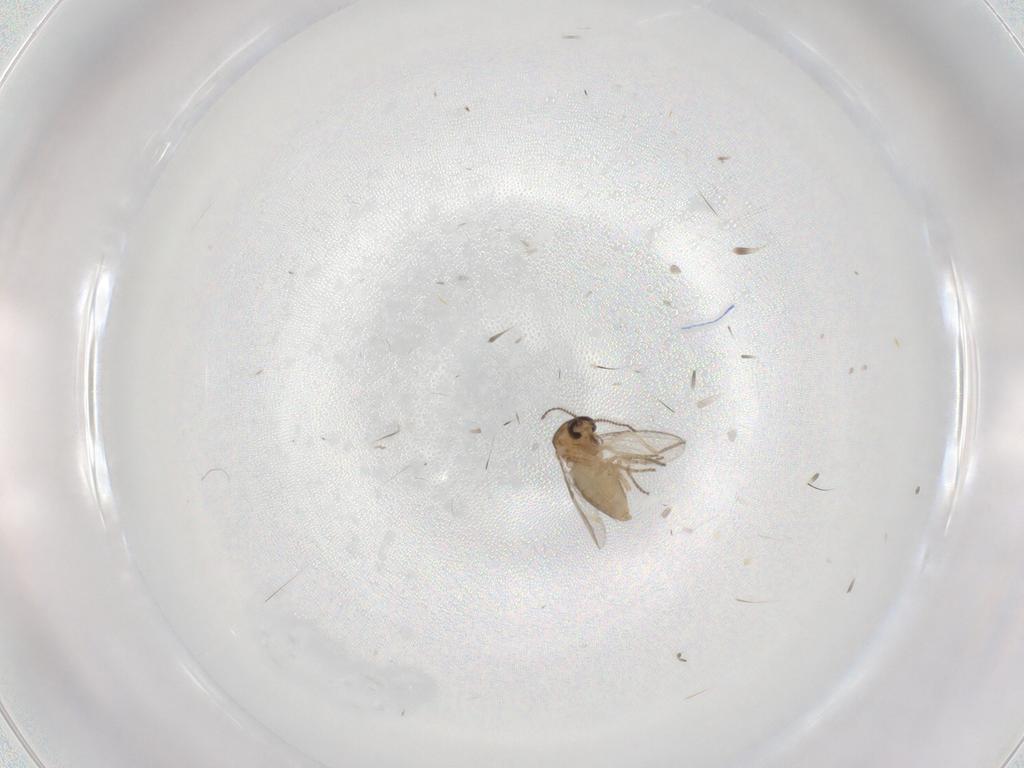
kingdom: Animalia
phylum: Arthropoda
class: Insecta
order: Diptera
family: Ceratopogonidae
